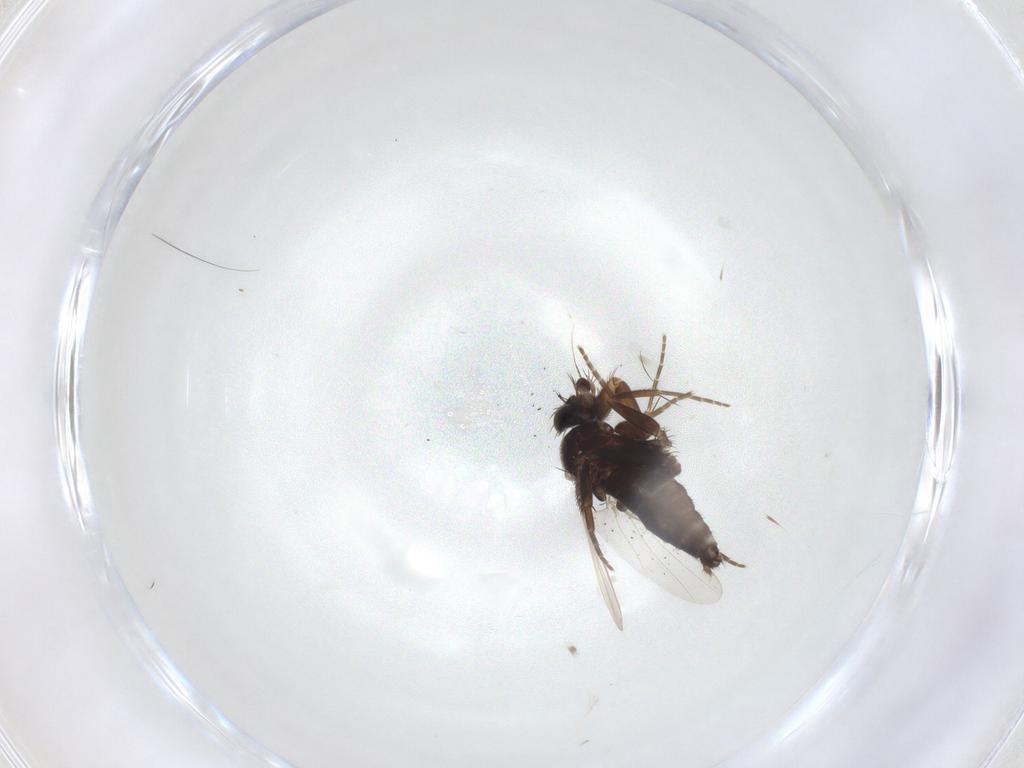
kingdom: Animalia
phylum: Arthropoda
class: Insecta
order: Diptera
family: Phoridae
